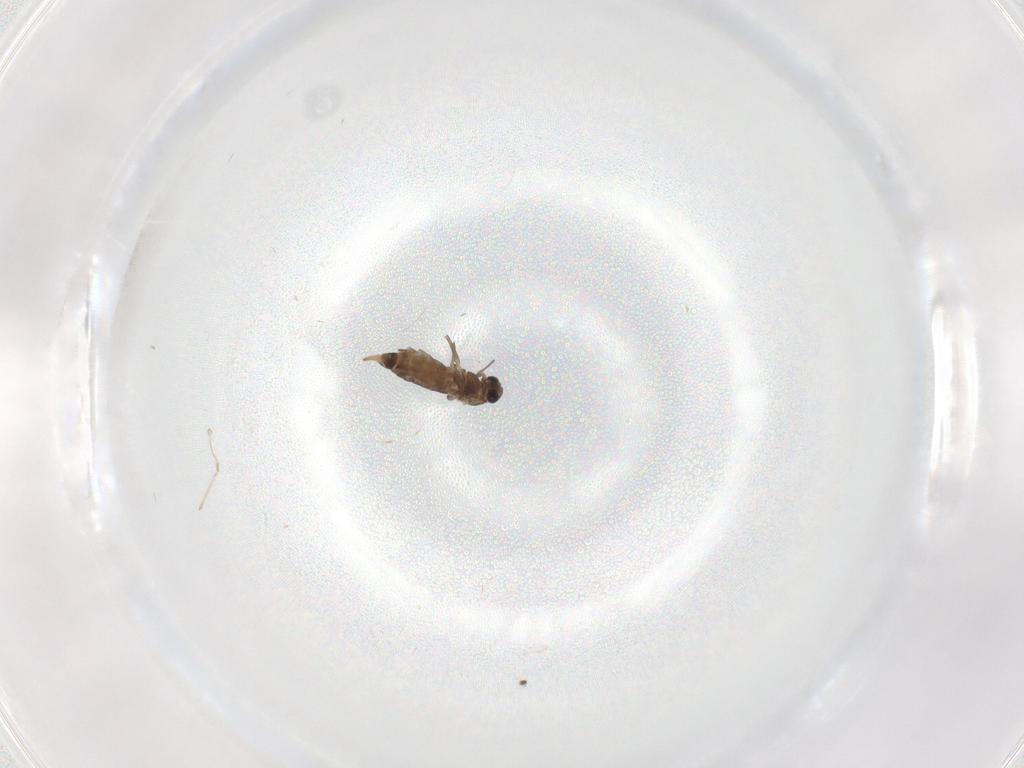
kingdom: Animalia
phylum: Arthropoda
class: Insecta
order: Diptera
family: Chironomidae
